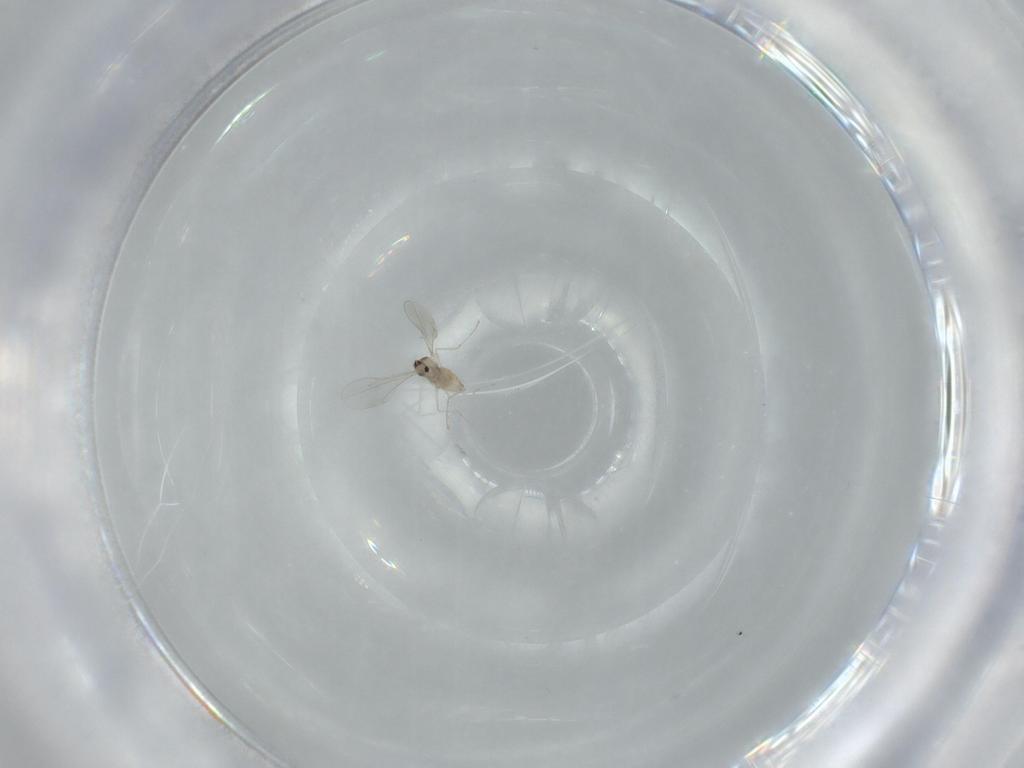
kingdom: Animalia
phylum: Arthropoda
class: Insecta
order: Diptera
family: Cecidomyiidae
